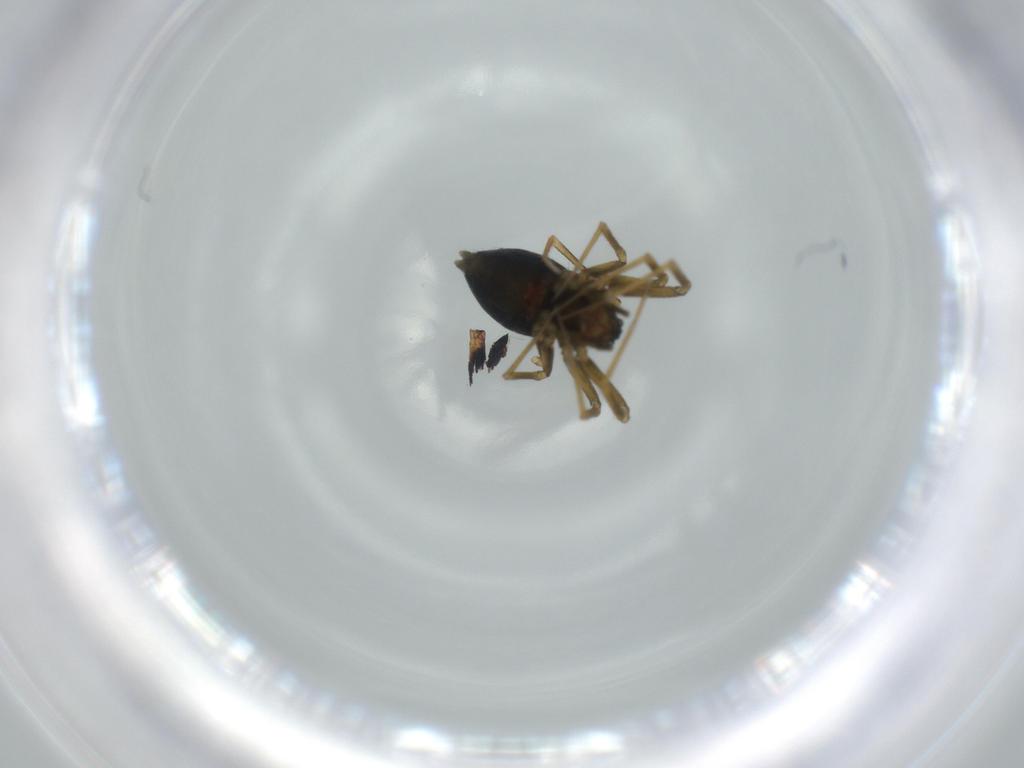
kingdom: Animalia
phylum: Arthropoda
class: Arachnida
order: Araneae
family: Linyphiidae
